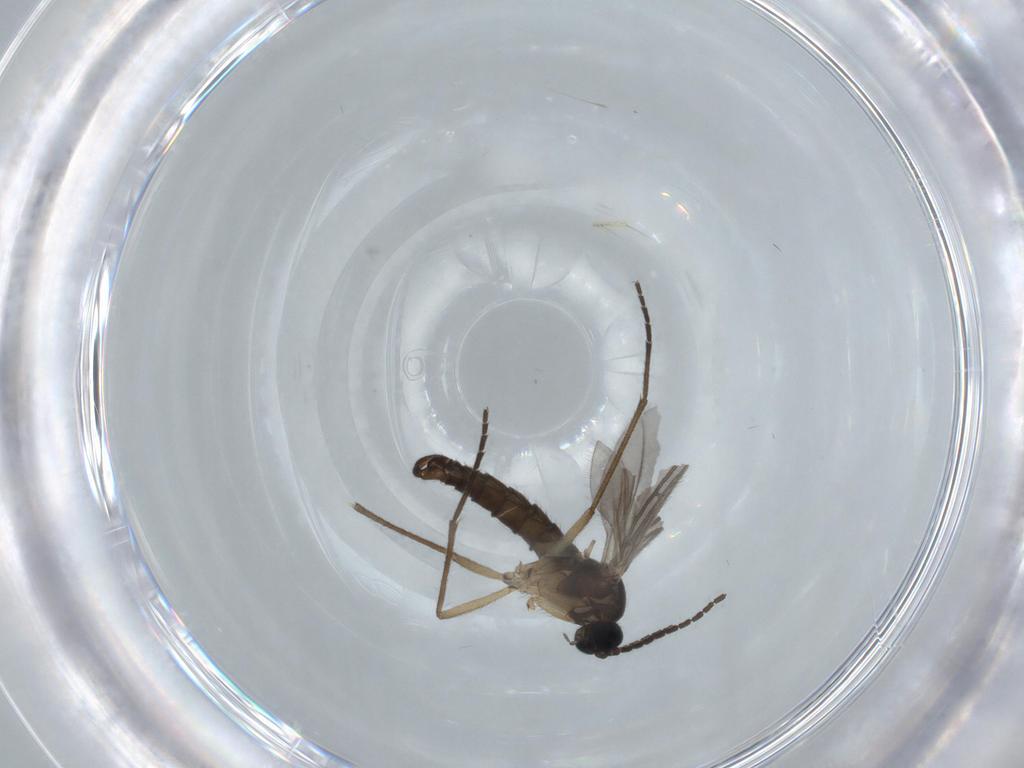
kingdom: Animalia
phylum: Arthropoda
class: Insecta
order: Diptera
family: Sciaridae
